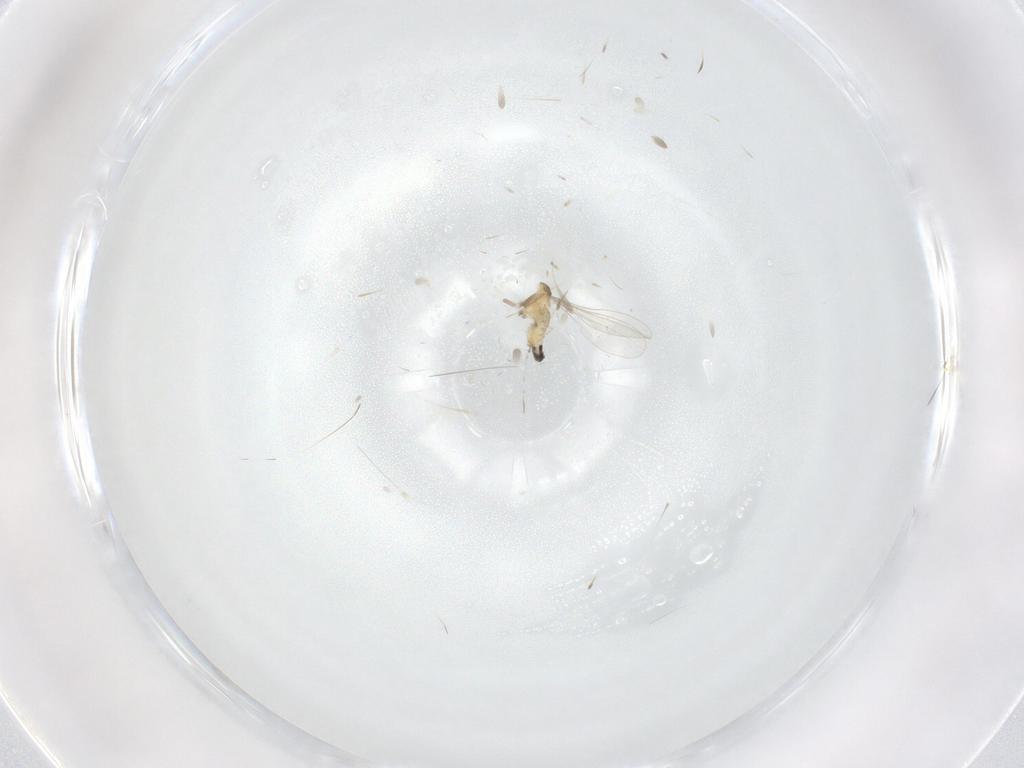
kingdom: Animalia
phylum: Arthropoda
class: Insecta
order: Diptera
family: Cecidomyiidae
